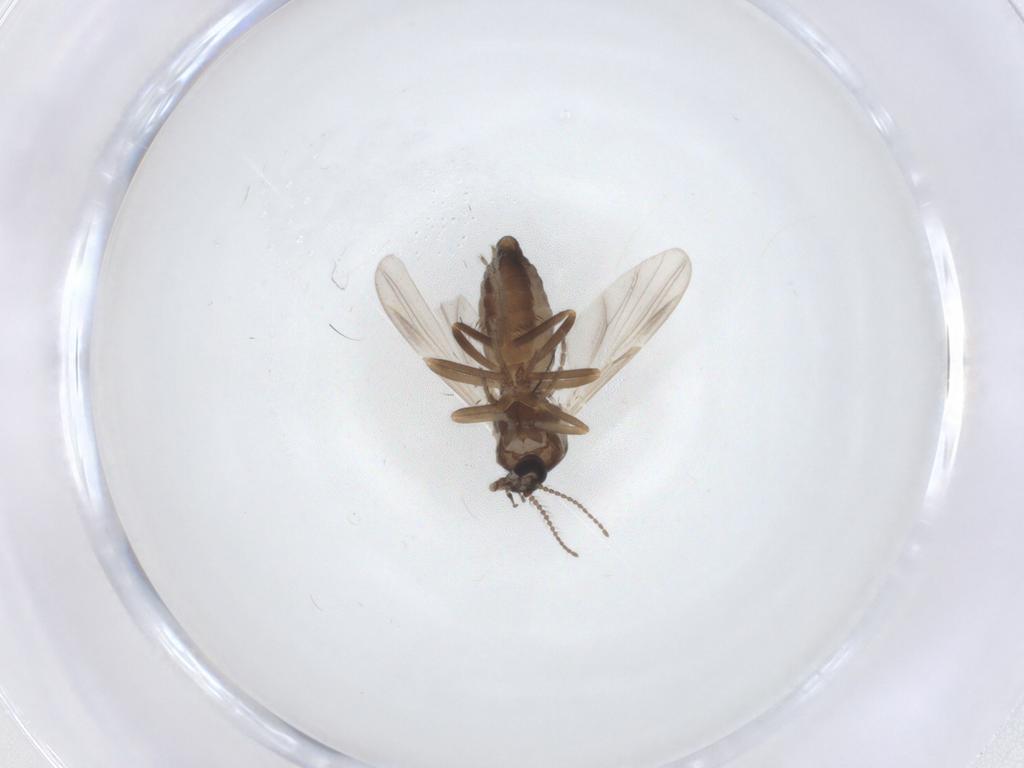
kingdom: Animalia
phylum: Arthropoda
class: Insecta
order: Diptera
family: Ceratopogonidae
